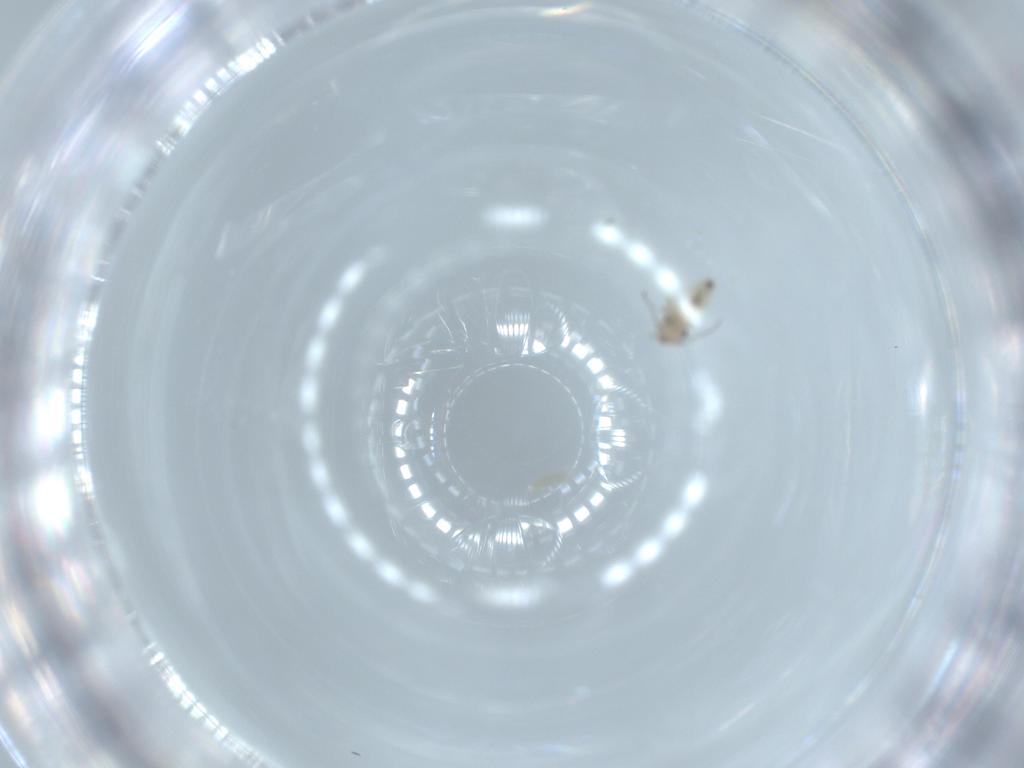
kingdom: Animalia
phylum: Arthropoda
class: Insecta
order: Psocodea
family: Lepidopsocidae
